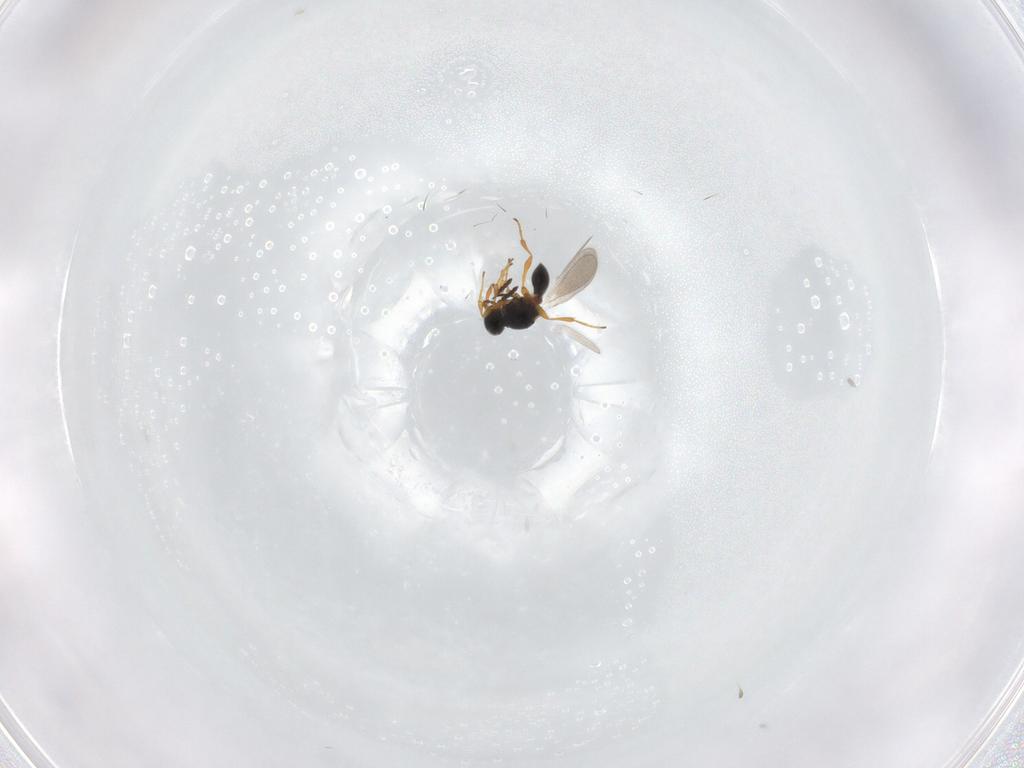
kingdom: Animalia
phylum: Arthropoda
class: Insecta
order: Hymenoptera
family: Platygastridae
